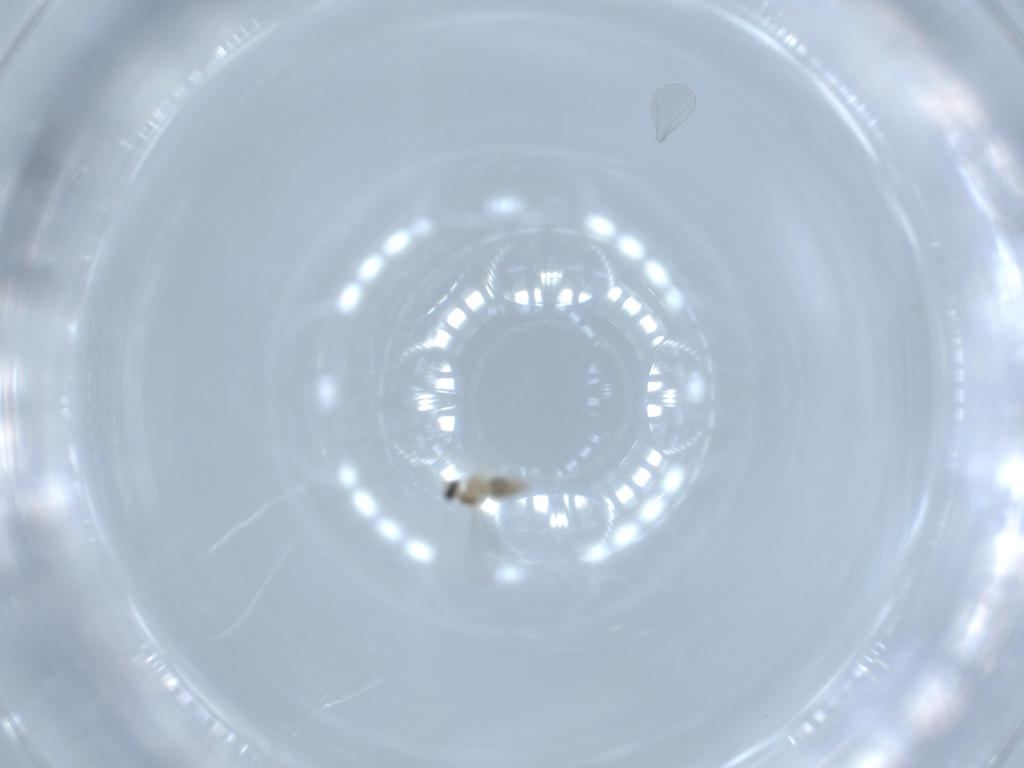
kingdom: Animalia
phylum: Arthropoda
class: Insecta
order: Diptera
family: Cecidomyiidae
